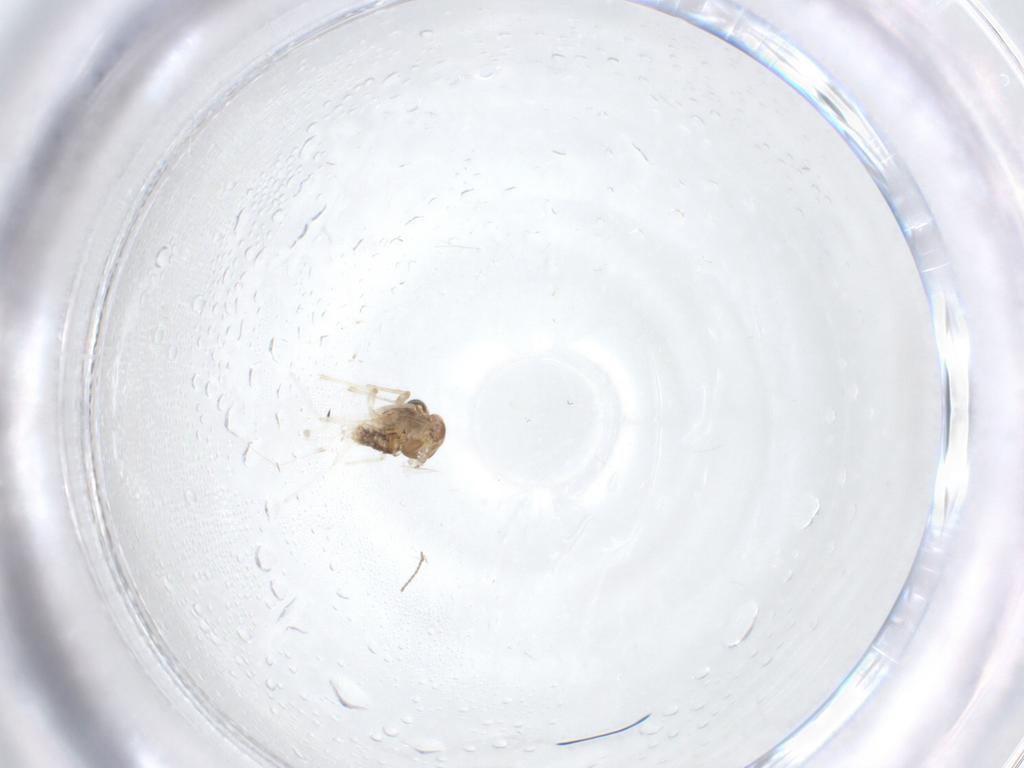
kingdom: Animalia
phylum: Arthropoda
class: Insecta
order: Diptera
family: Chironomidae
